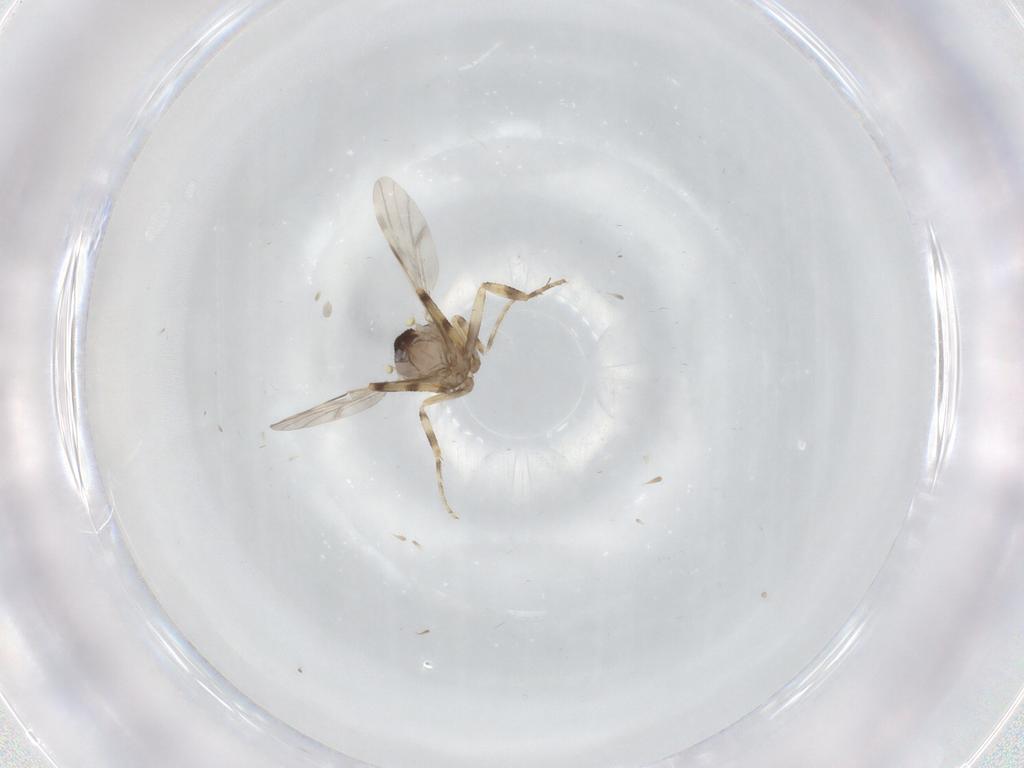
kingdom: Animalia
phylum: Arthropoda
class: Insecta
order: Diptera
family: Ceratopogonidae
